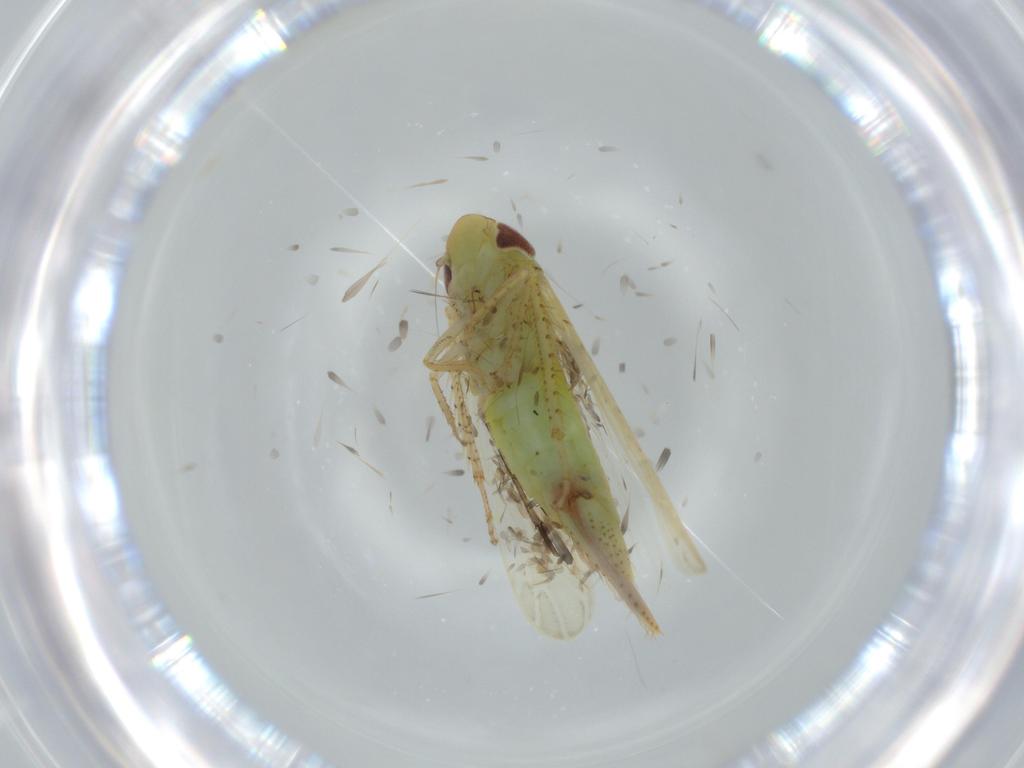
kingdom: Animalia
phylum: Arthropoda
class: Insecta
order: Hemiptera
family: Cicadellidae
